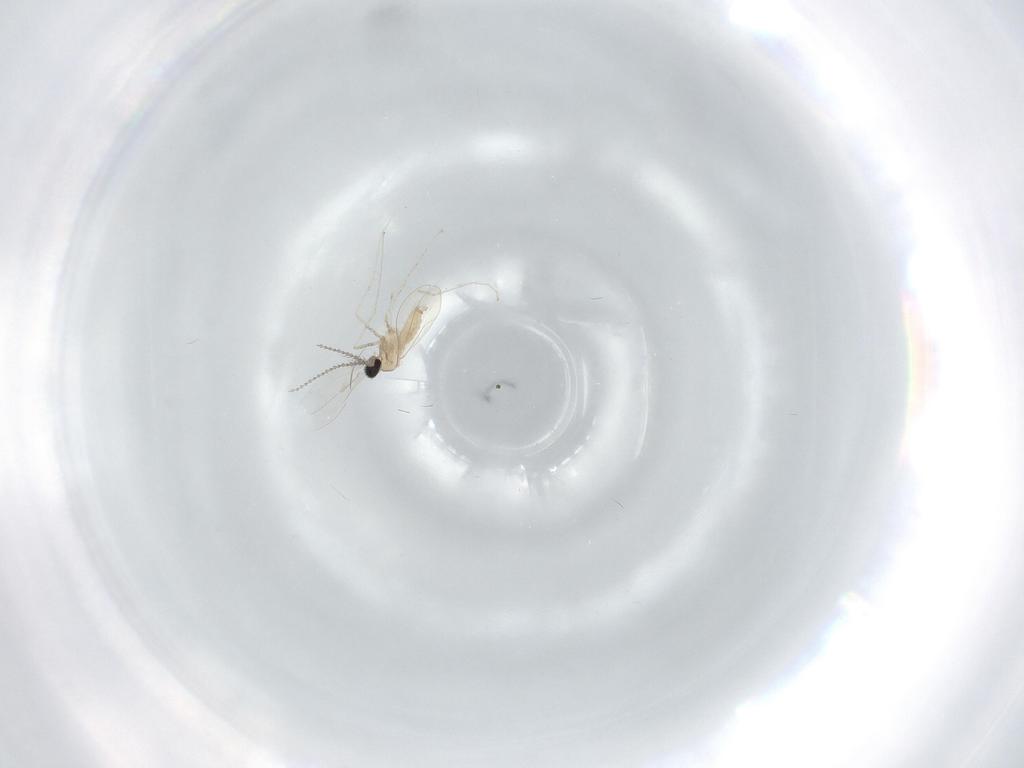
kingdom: Animalia
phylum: Arthropoda
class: Insecta
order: Diptera
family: Cecidomyiidae
